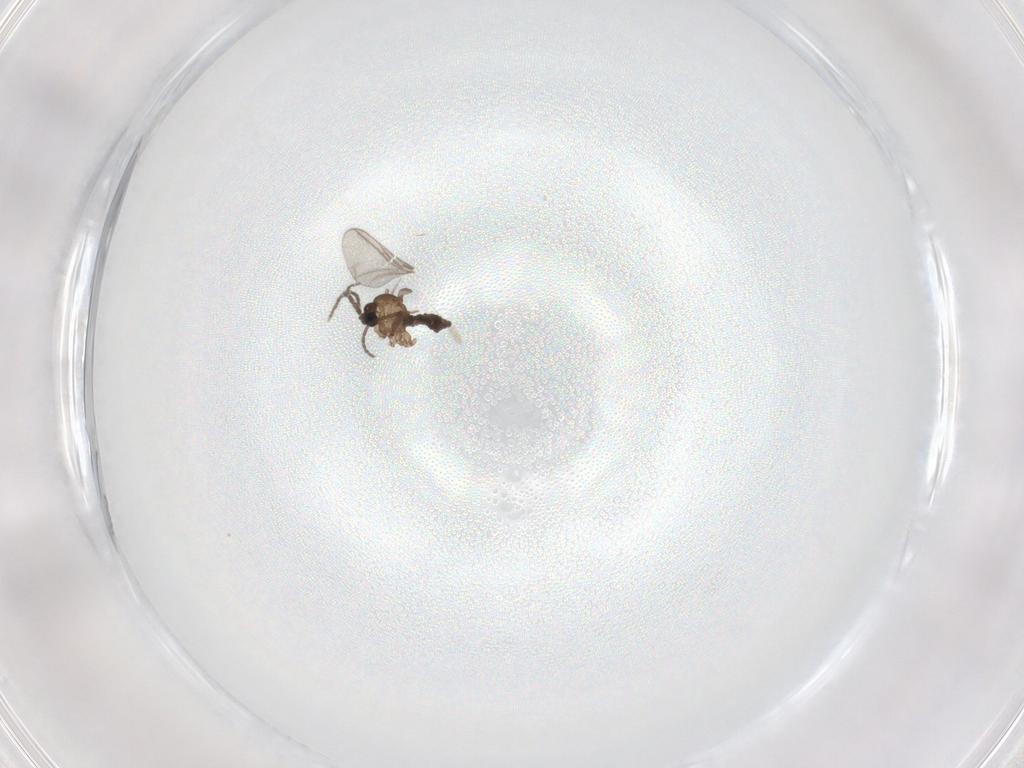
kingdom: Animalia
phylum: Arthropoda
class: Insecta
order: Diptera
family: Sciaridae
